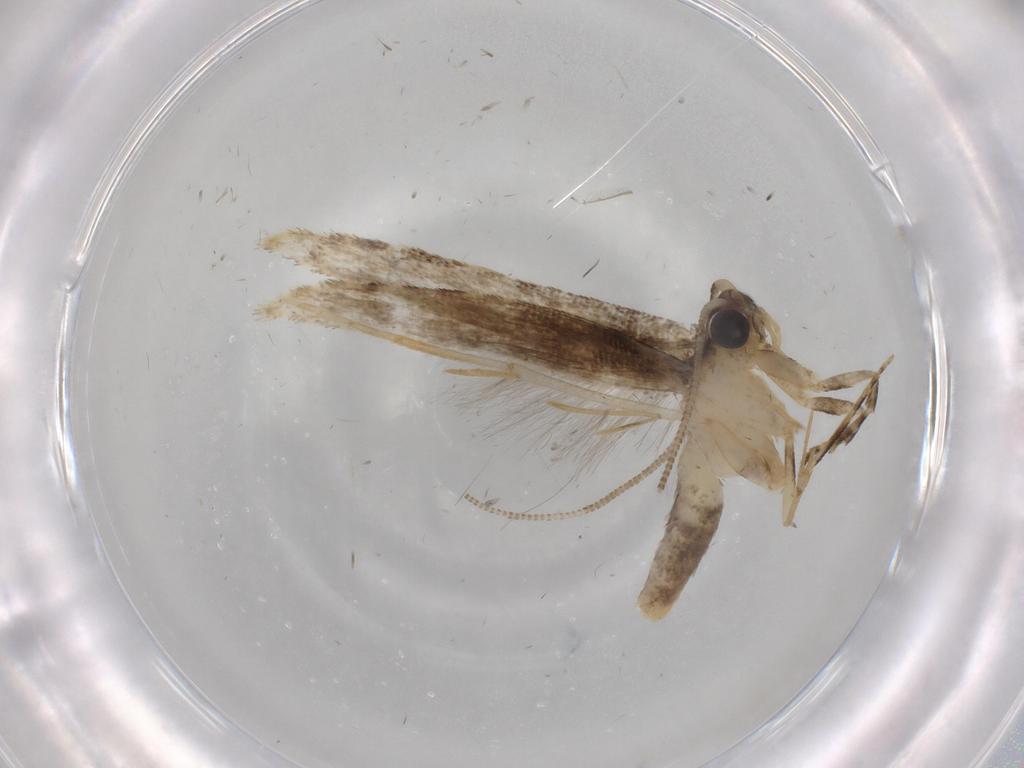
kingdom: Animalia
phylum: Arthropoda
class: Insecta
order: Lepidoptera
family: Tineidae
